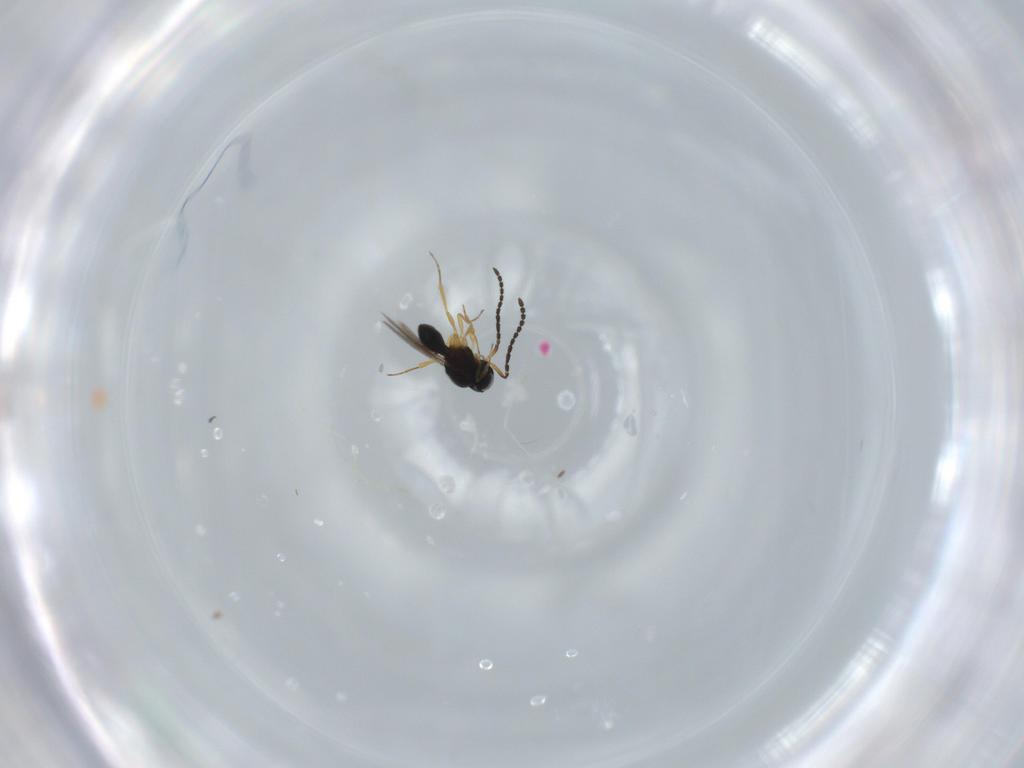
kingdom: Animalia
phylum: Arthropoda
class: Insecta
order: Hymenoptera
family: Scelionidae
